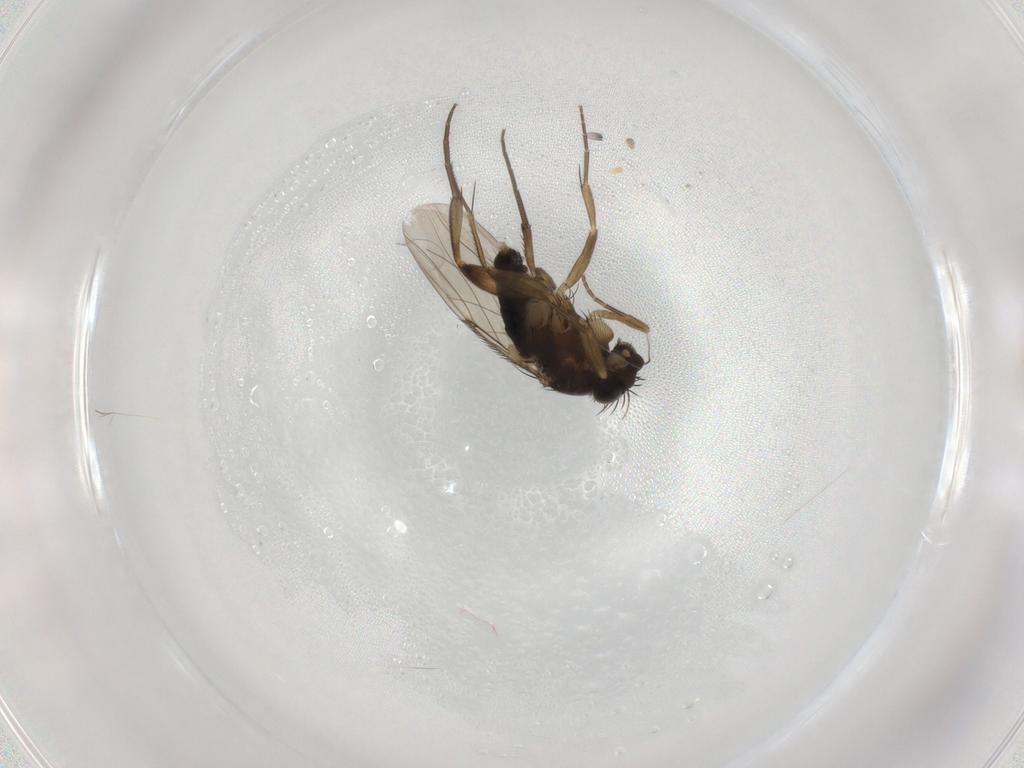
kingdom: Animalia
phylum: Arthropoda
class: Insecta
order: Diptera
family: Phoridae
